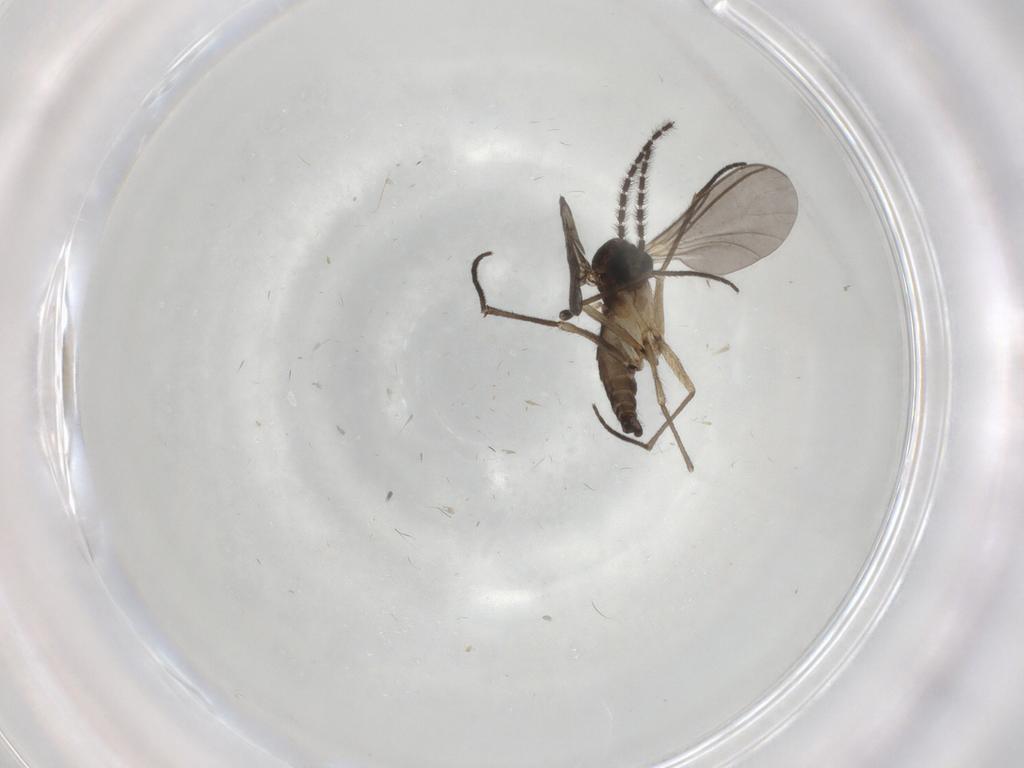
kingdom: Animalia
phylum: Arthropoda
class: Insecta
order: Diptera
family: Sciaridae
